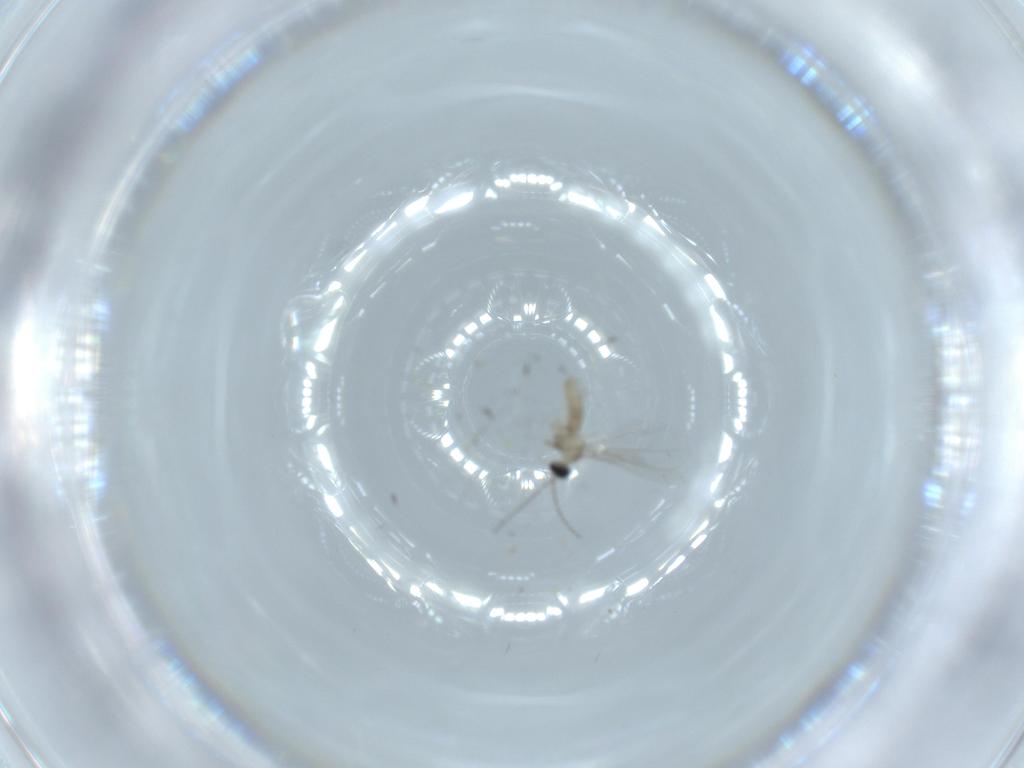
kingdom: Animalia
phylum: Arthropoda
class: Insecta
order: Diptera
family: Cecidomyiidae
